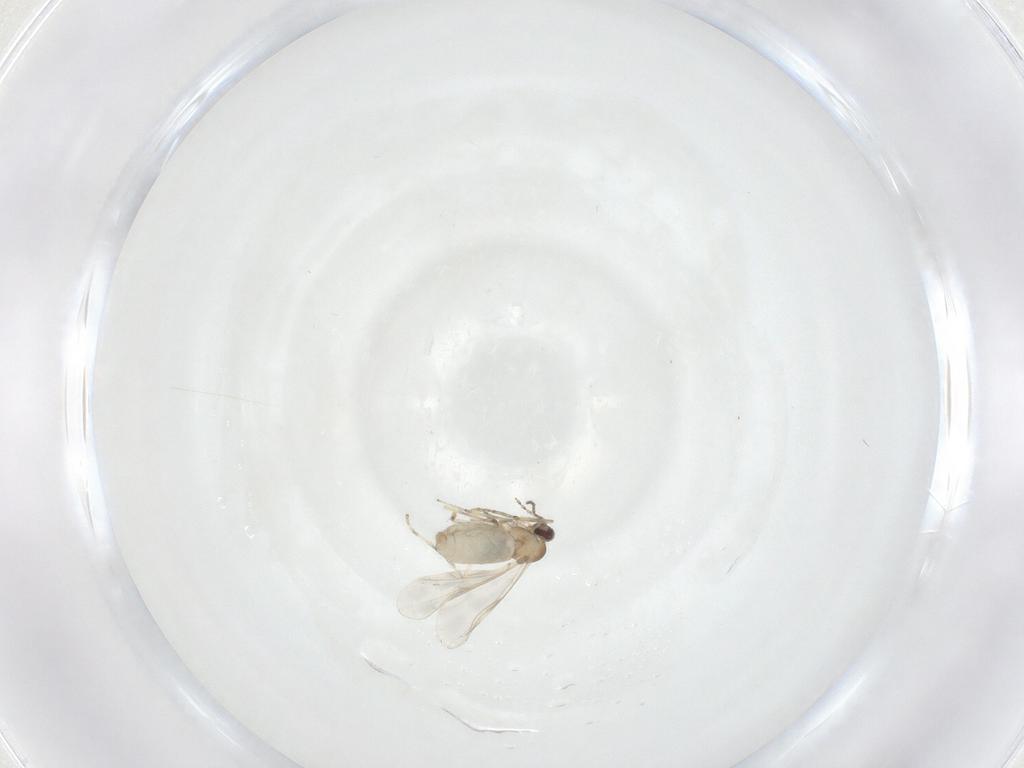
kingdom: Animalia
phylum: Arthropoda
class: Insecta
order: Diptera
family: Cecidomyiidae
